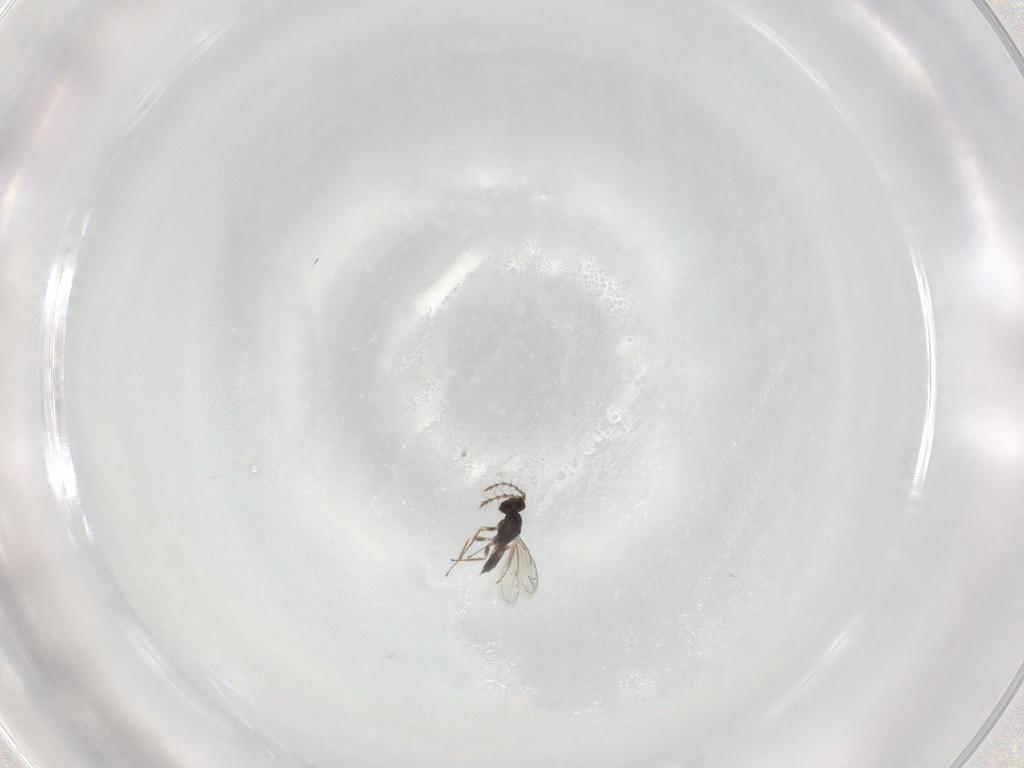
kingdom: Animalia
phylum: Arthropoda
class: Insecta
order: Hymenoptera
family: Ichneumonidae
